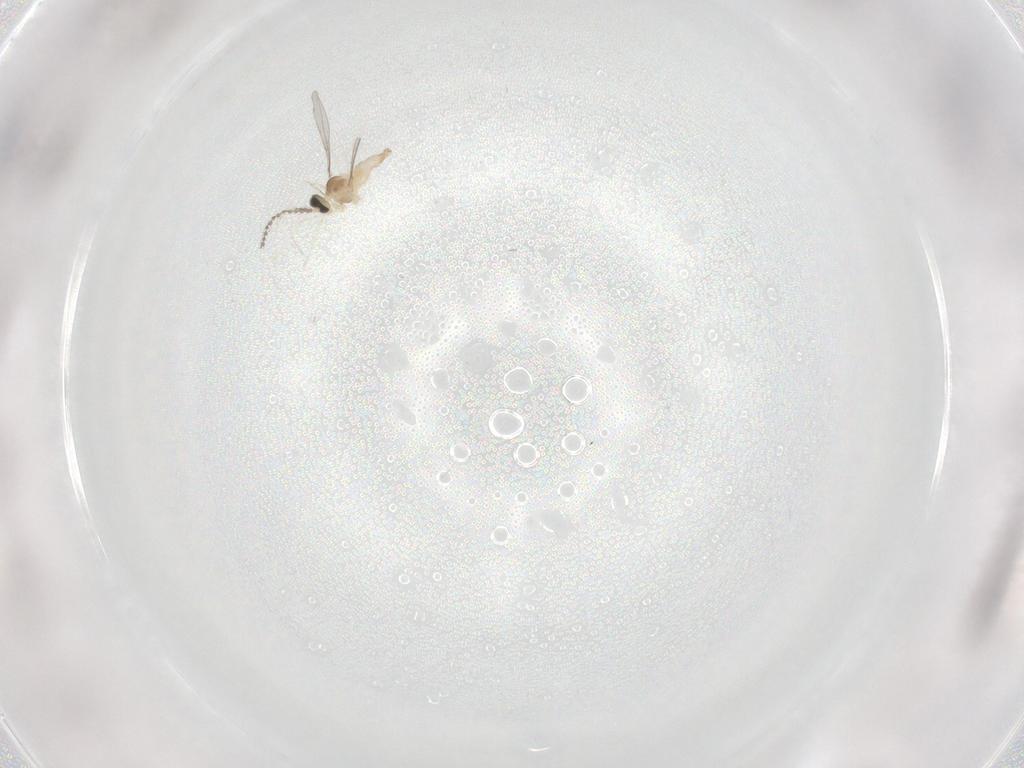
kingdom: Animalia
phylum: Arthropoda
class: Insecta
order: Diptera
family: Cecidomyiidae
